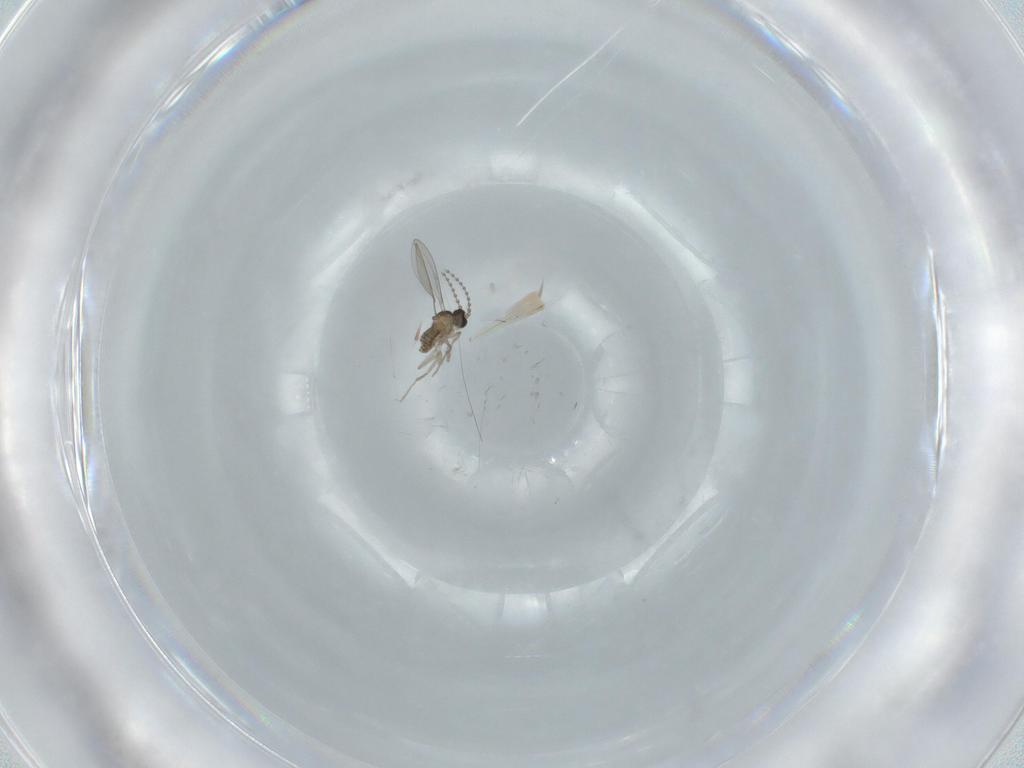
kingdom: Animalia
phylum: Arthropoda
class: Insecta
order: Diptera
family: Cecidomyiidae
